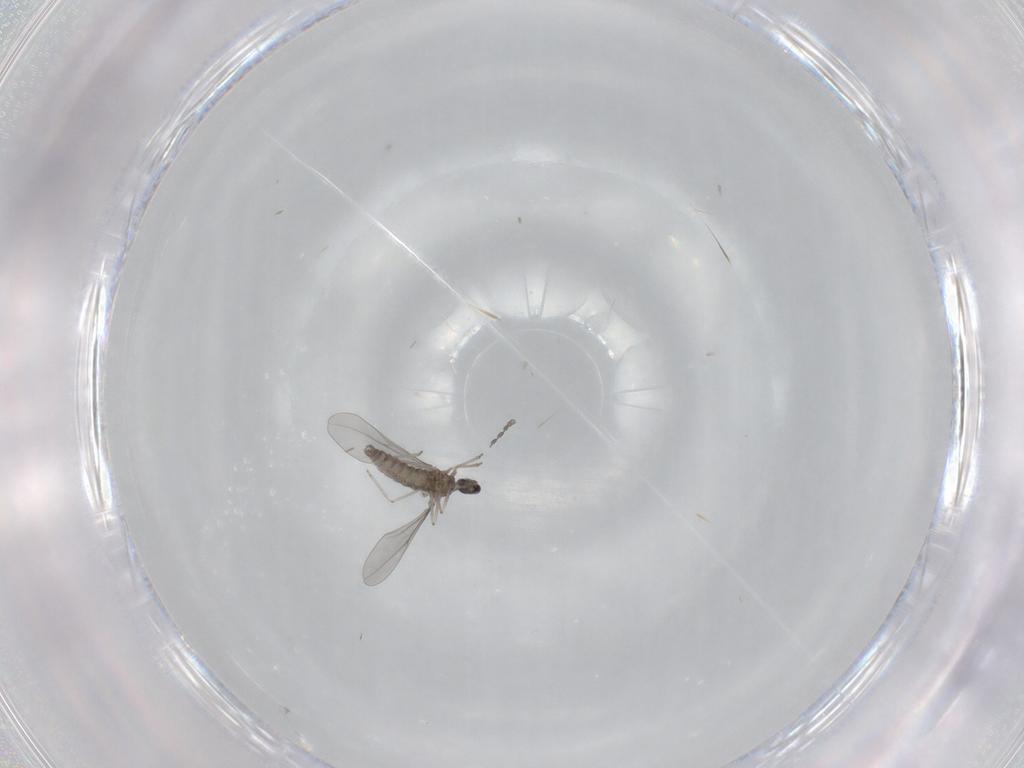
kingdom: Animalia
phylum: Arthropoda
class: Insecta
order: Diptera
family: Cecidomyiidae
